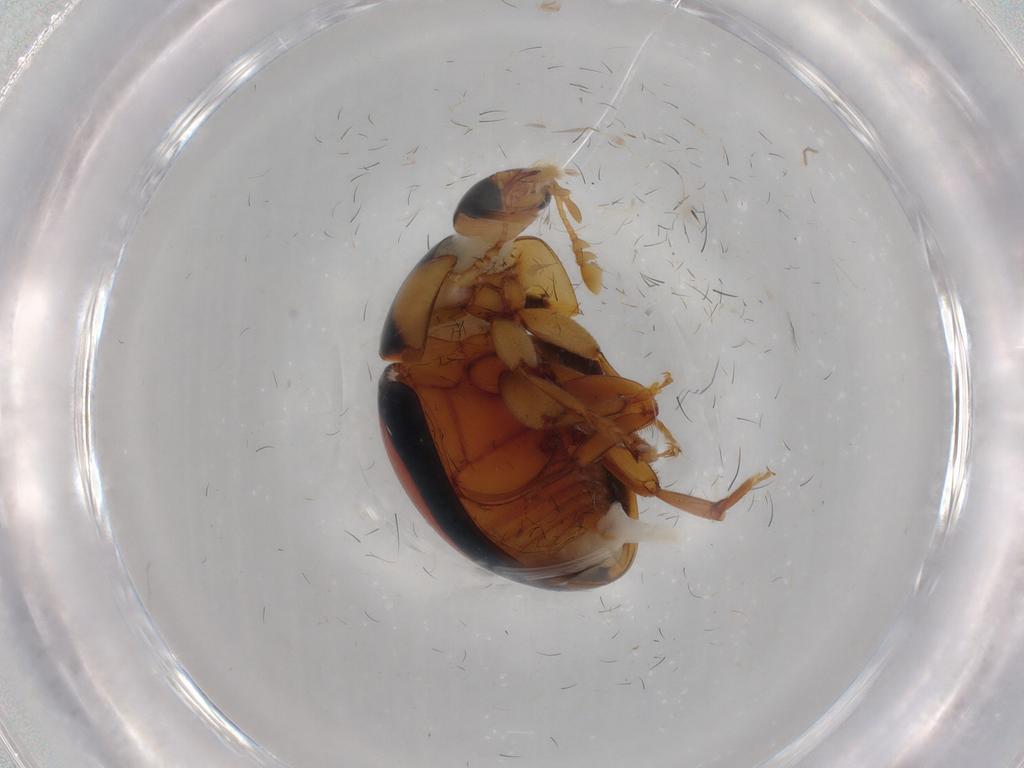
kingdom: Animalia
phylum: Arthropoda
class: Insecta
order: Coleoptera
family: Phalacridae
